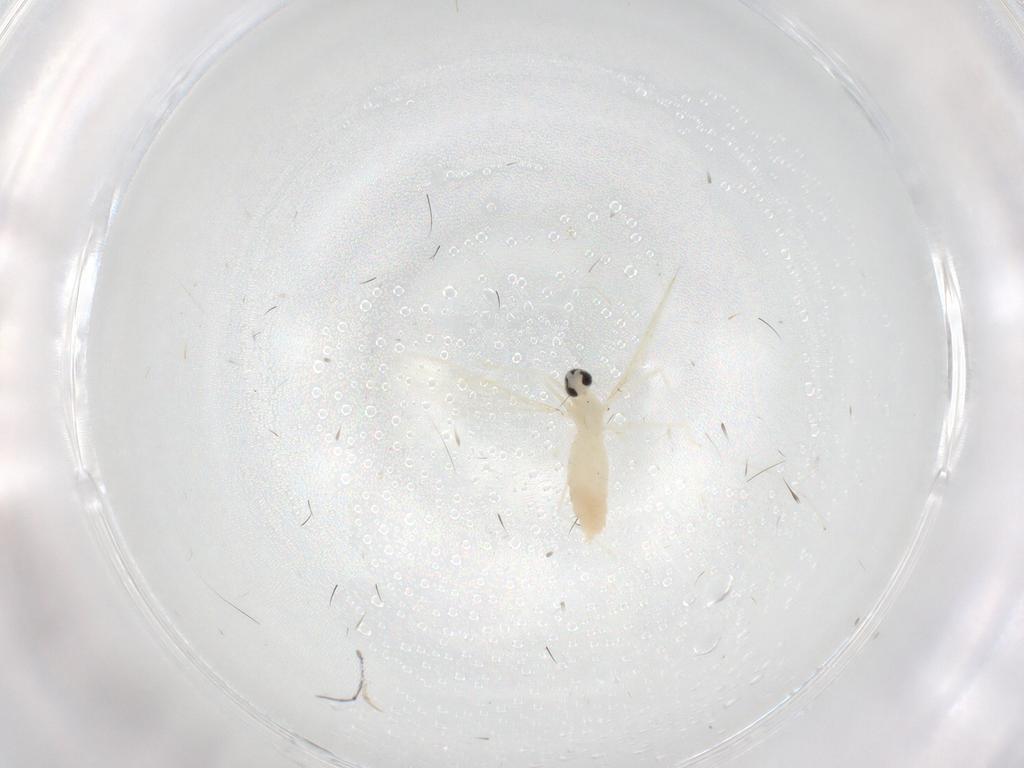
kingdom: Animalia
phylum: Arthropoda
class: Insecta
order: Diptera
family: Cecidomyiidae
